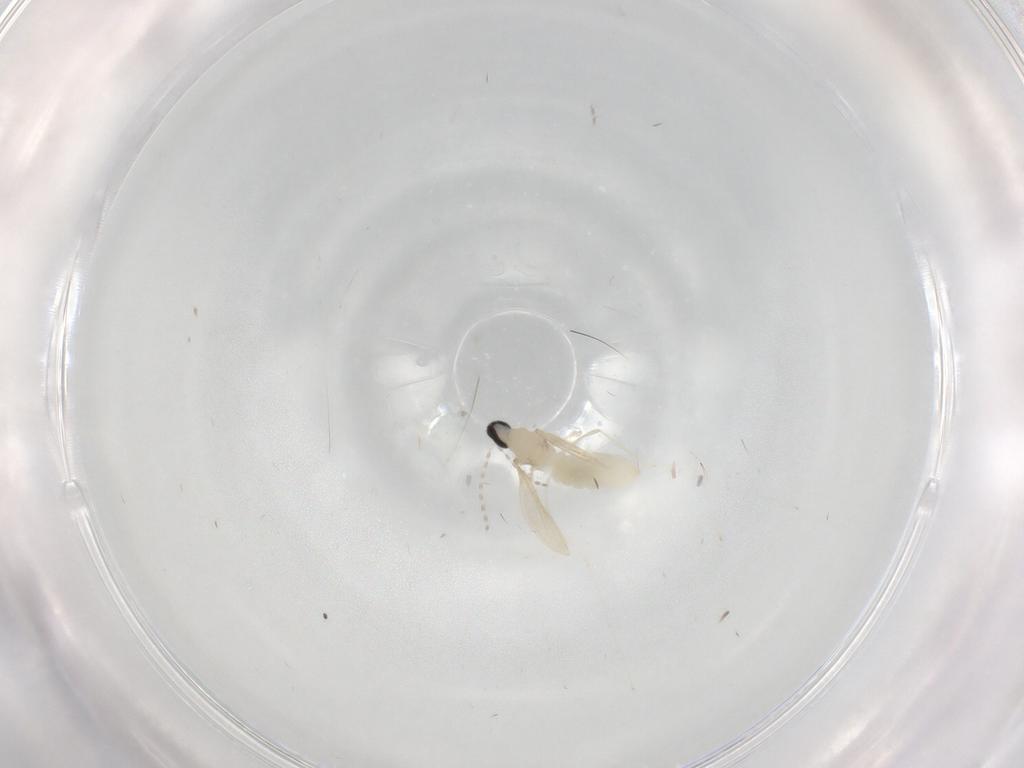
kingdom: Animalia
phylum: Arthropoda
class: Insecta
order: Diptera
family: Cecidomyiidae
